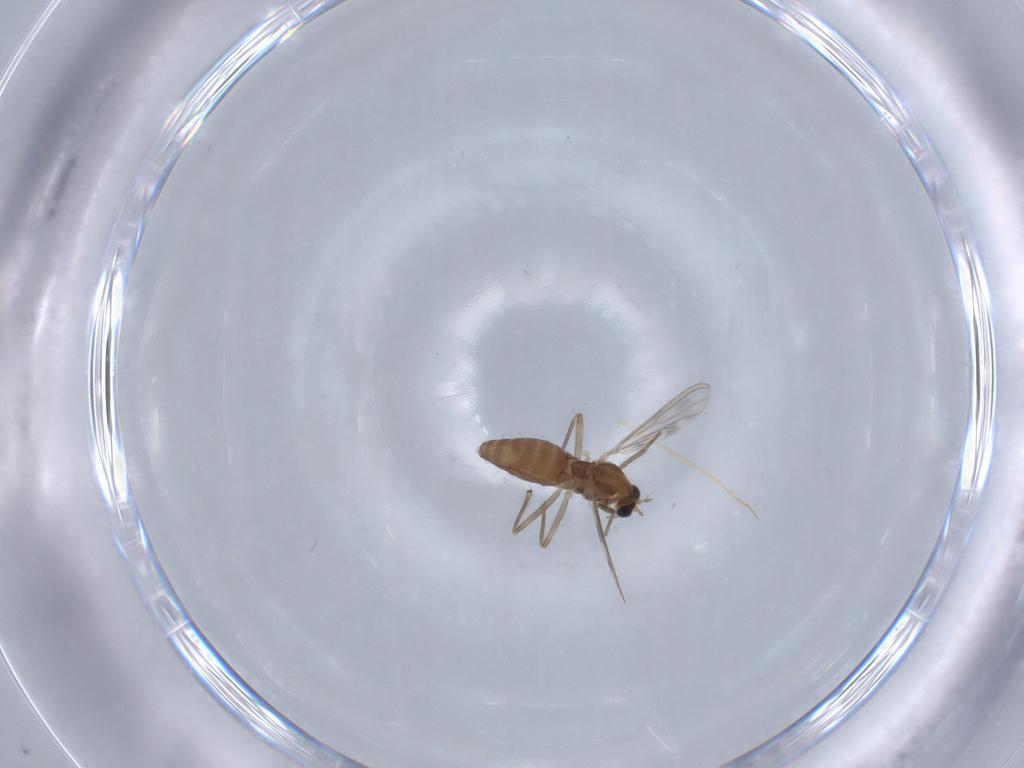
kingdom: Animalia
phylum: Arthropoda
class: Insecta
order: Diptera
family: Chironomidae
